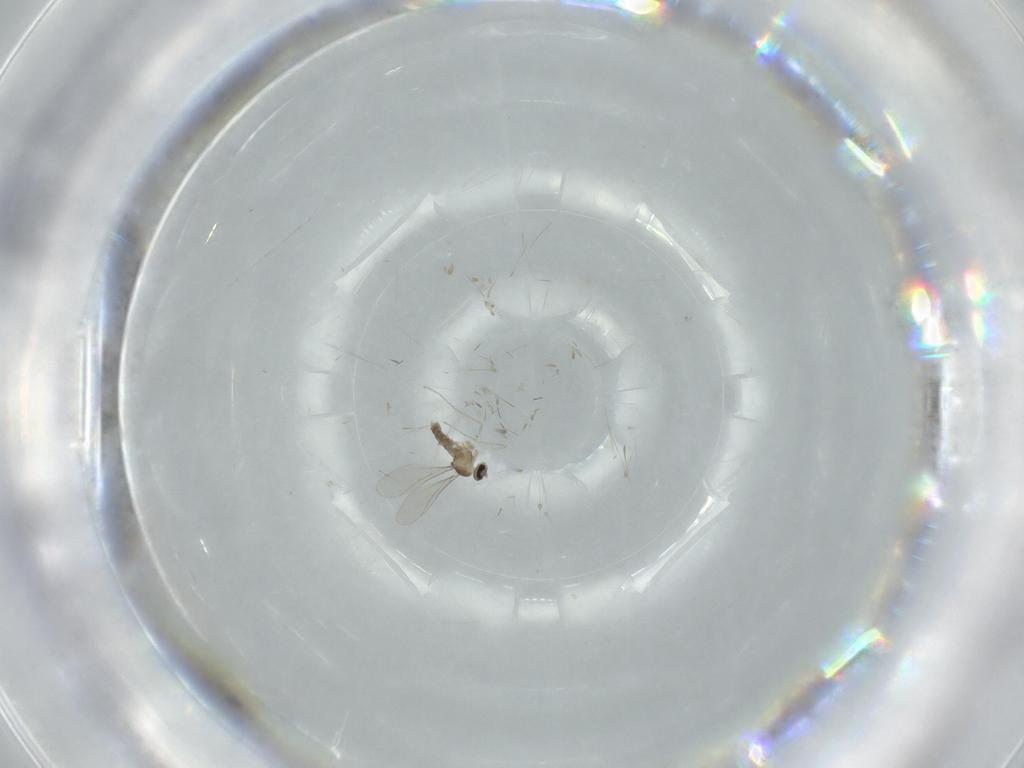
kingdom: Animalia
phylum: Arthropoda
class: Insecta
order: Diptera
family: Cecidomyiidae
